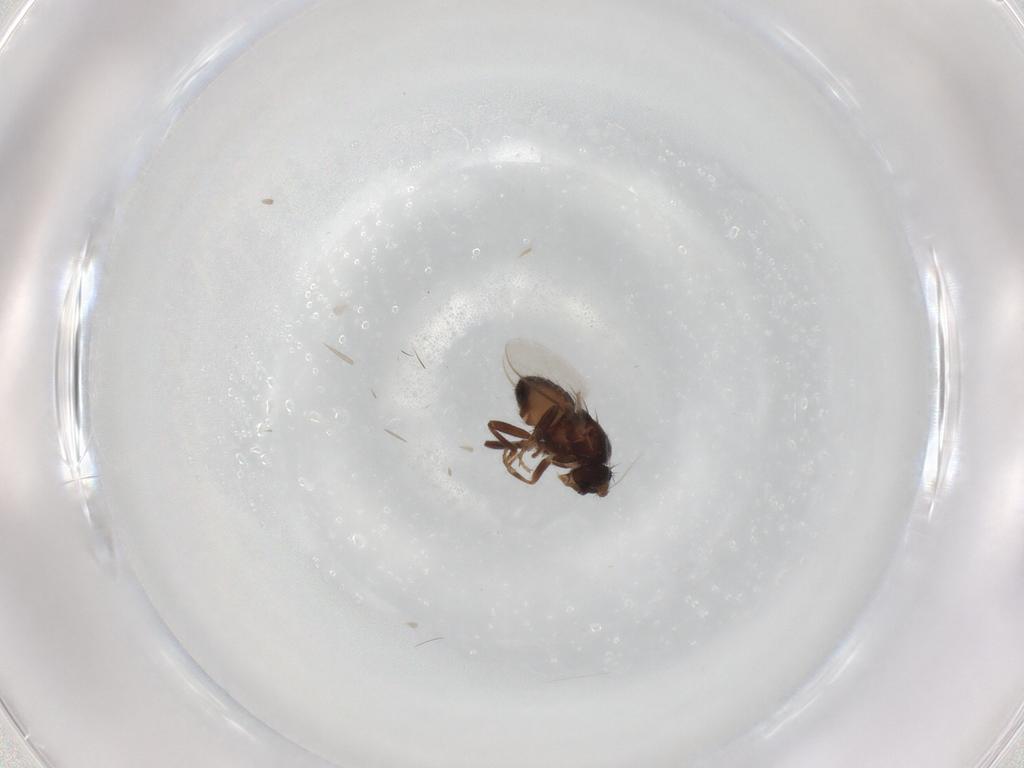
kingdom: Animalia
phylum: Arthropoda
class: Insecta
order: Diptera
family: Sphaeroceridae
